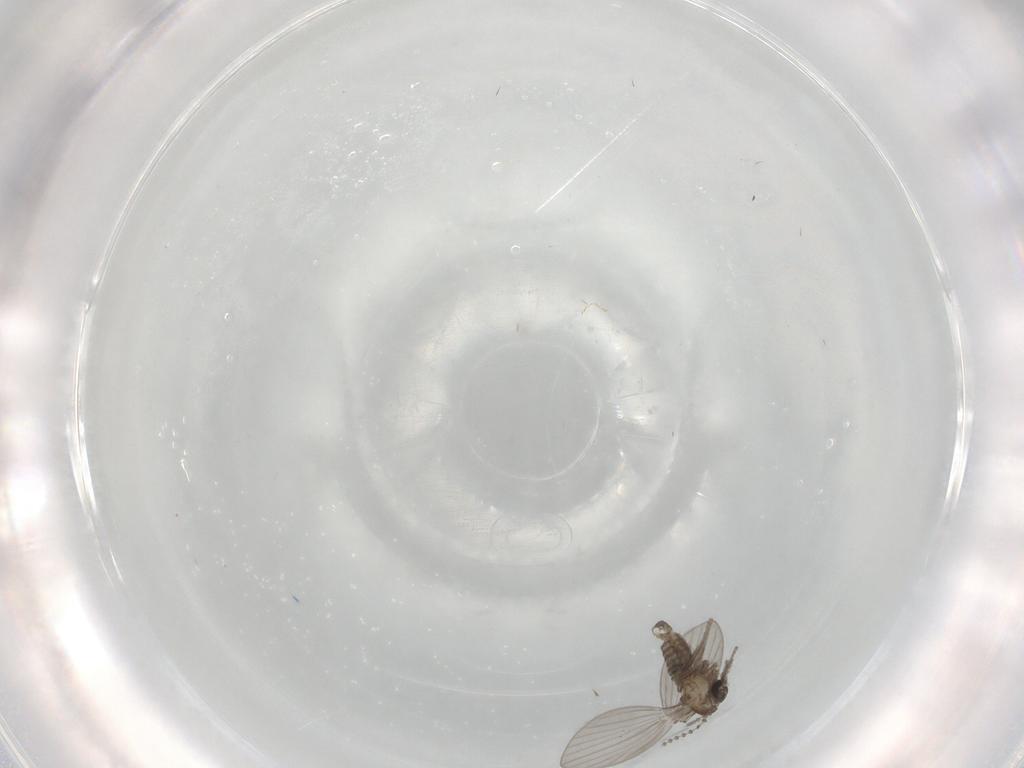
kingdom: Animalia
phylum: Arthropoda
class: Insecta
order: Diptera
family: Psychodidae
